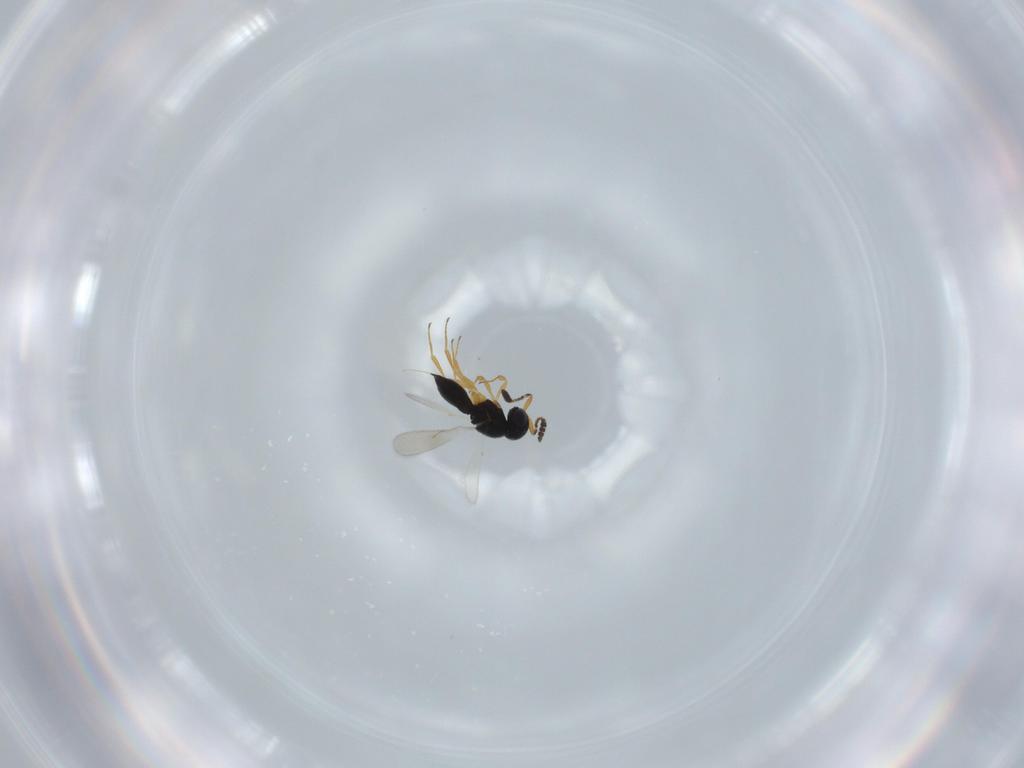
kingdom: Animalia
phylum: Arthropoda
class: Insecta
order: Hymenoptera
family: Scelionidae
